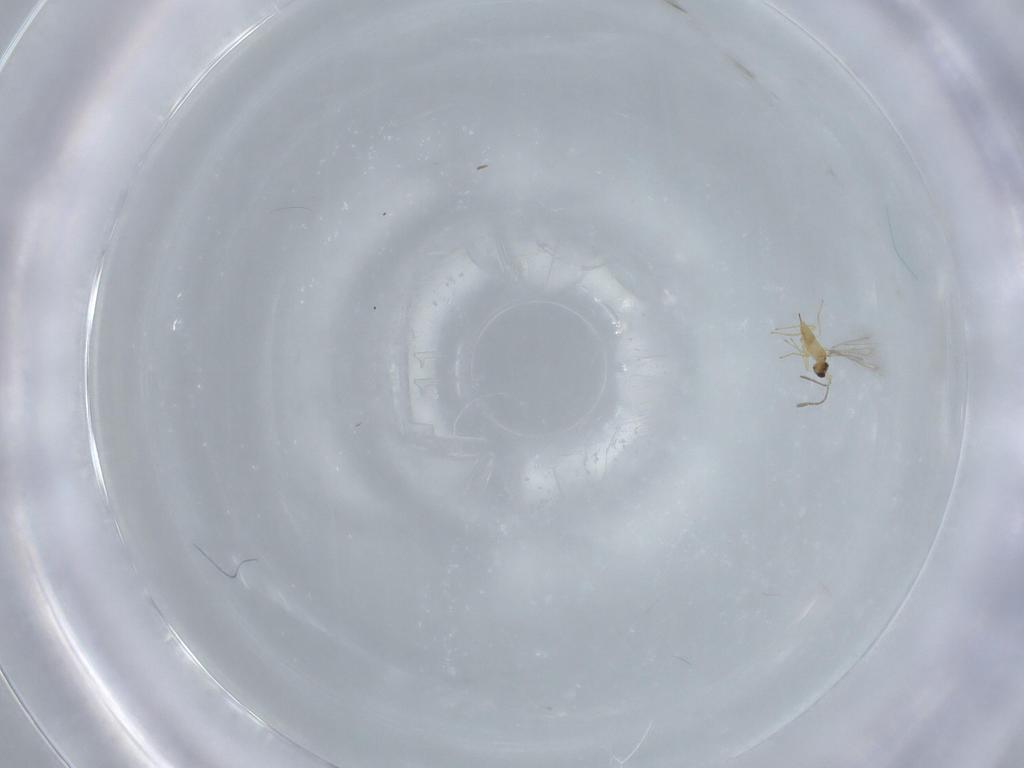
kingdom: Animalia
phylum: Arthropoda
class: Insecta
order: Hymenoptera
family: Mymaridae
